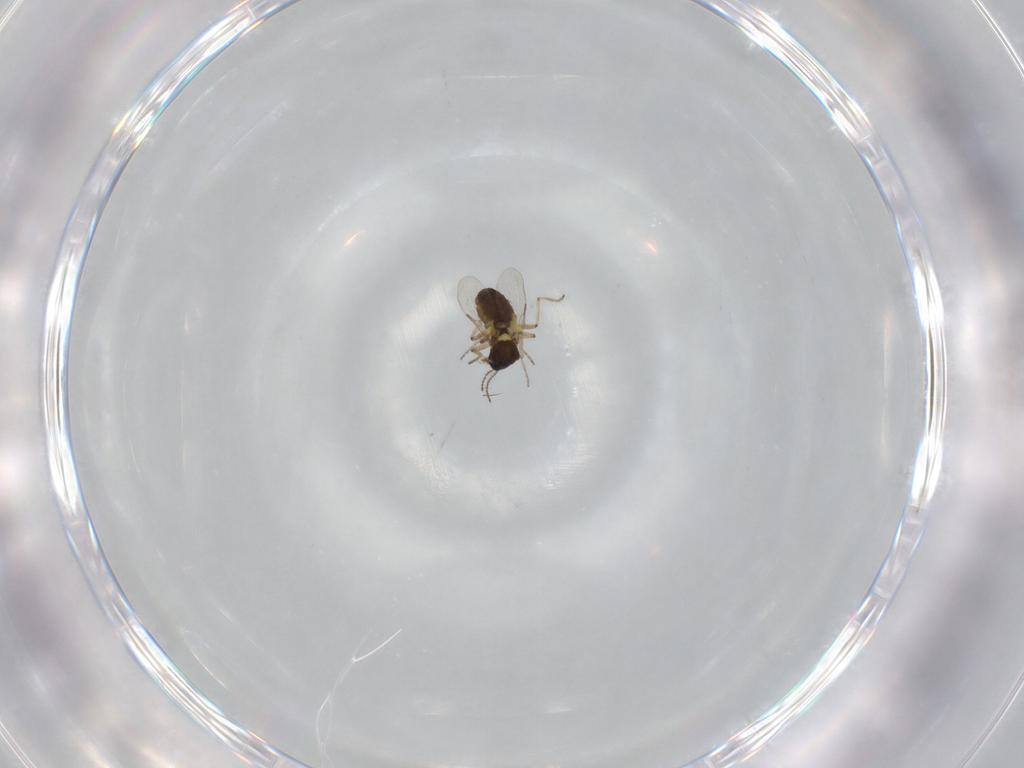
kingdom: Animalia
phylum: Arthropoda
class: Insecta
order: Diptera
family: Ceratopogonidae
